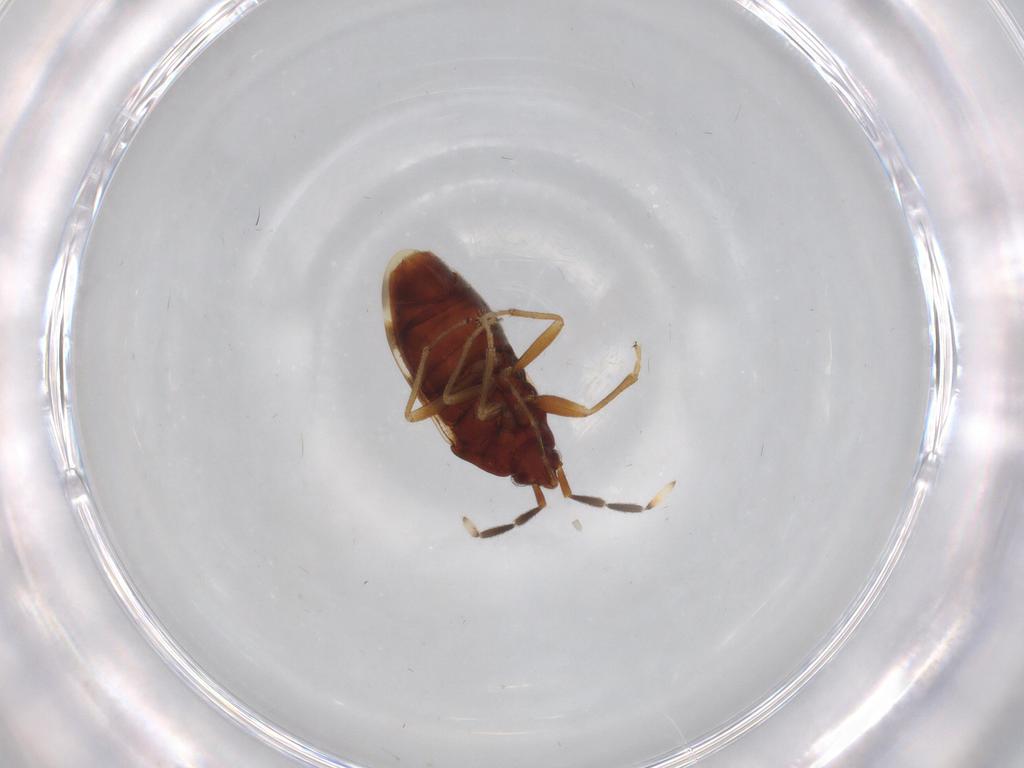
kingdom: Animalia
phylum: Arthropoda
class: Insecta
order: Hemiptera
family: Rhyparochromidae
